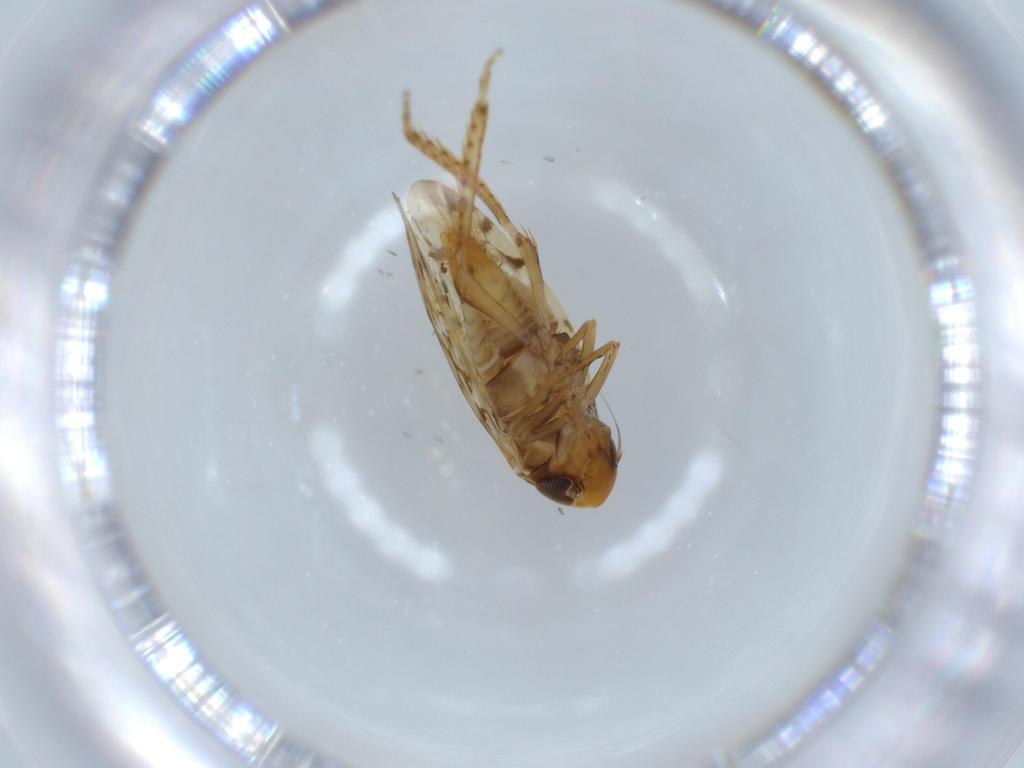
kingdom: Animalia
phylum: Arthropoda
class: Insecta
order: Hemiptera
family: Cicadellidae
